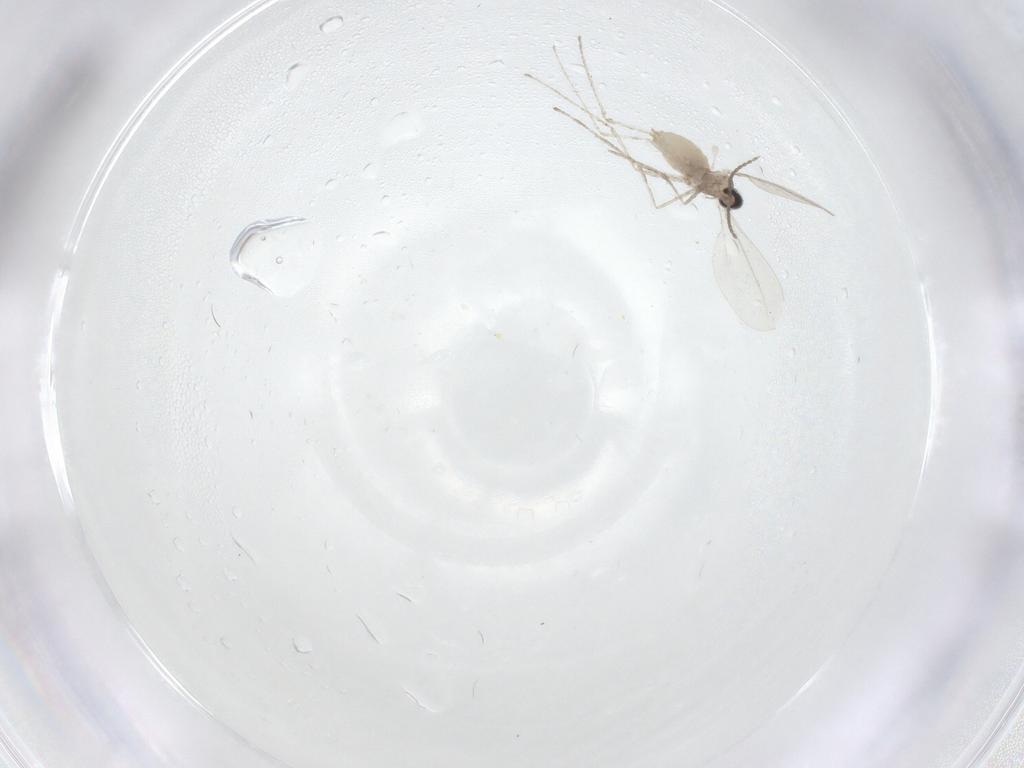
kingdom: Animalia
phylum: Arthropoda
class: Insecta
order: Diptera
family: Cecidomyiidae
